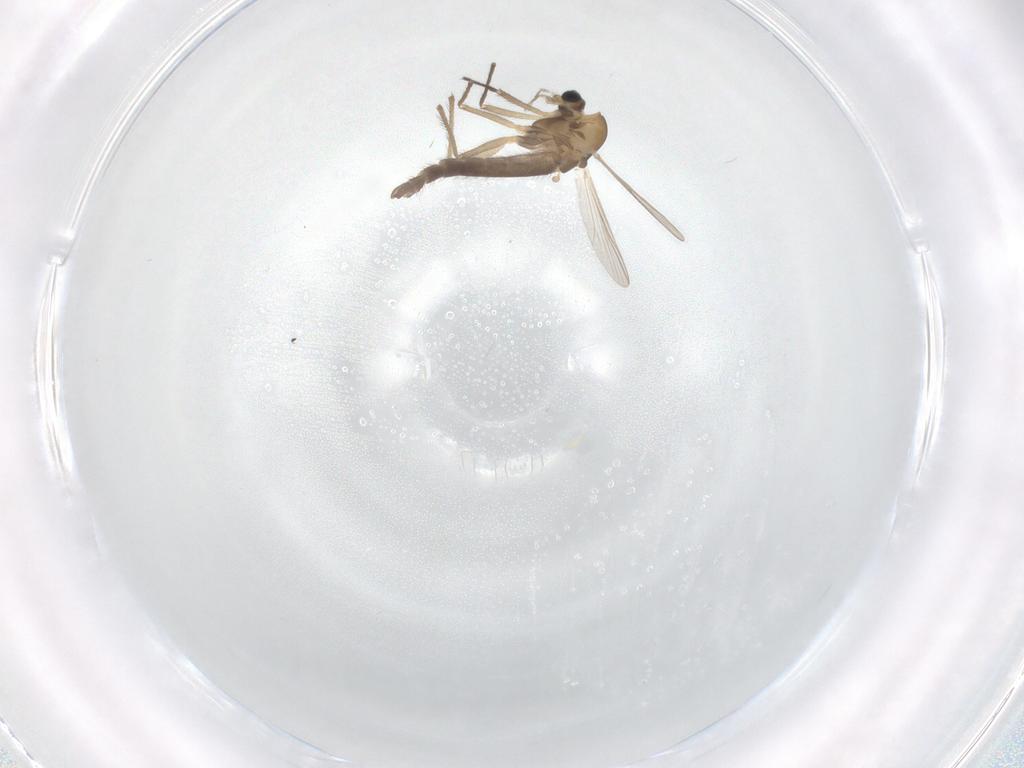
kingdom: Animalia
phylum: Arthropoda
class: Insecta
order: Diptera
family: Chironomidae
